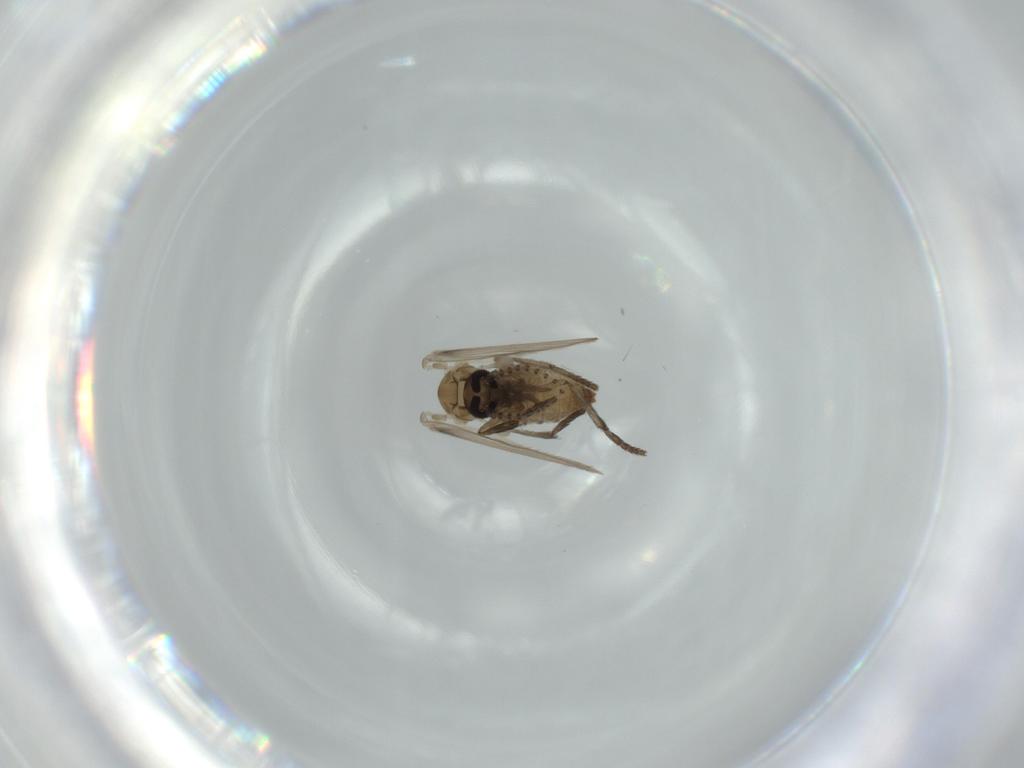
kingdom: Animalia
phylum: Arthropoda
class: Insecta
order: Diptera
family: Psychodidae
